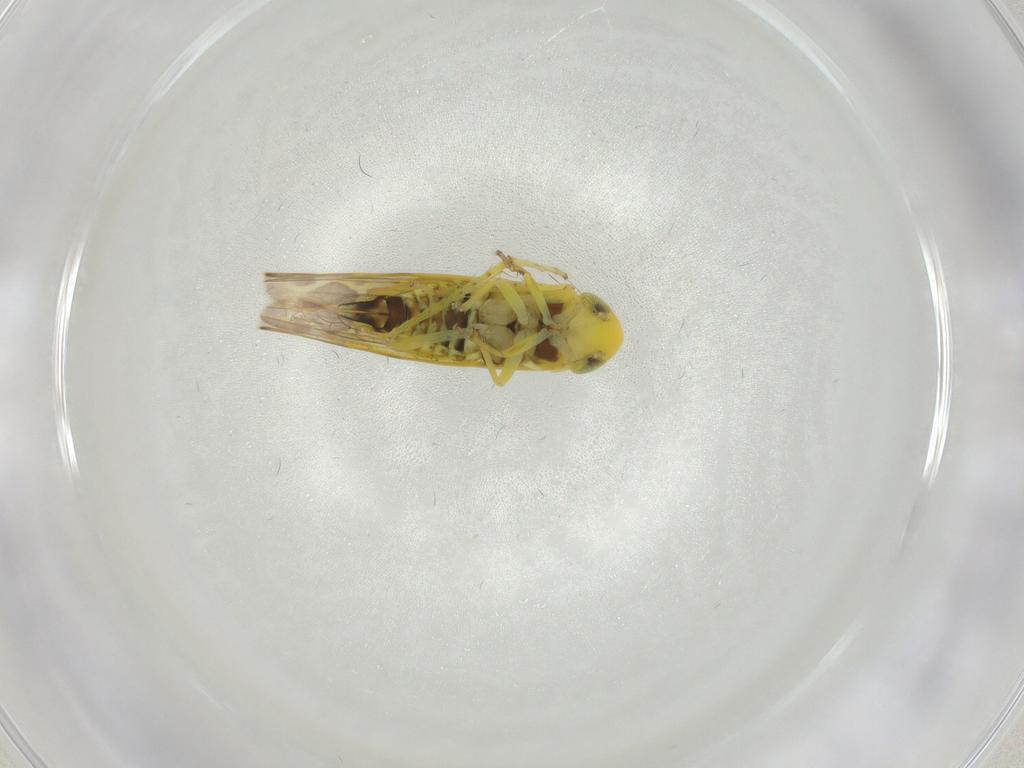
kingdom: Animalia
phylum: Arthropoda
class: Insecta
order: Hemiptera
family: Cicadellidae
